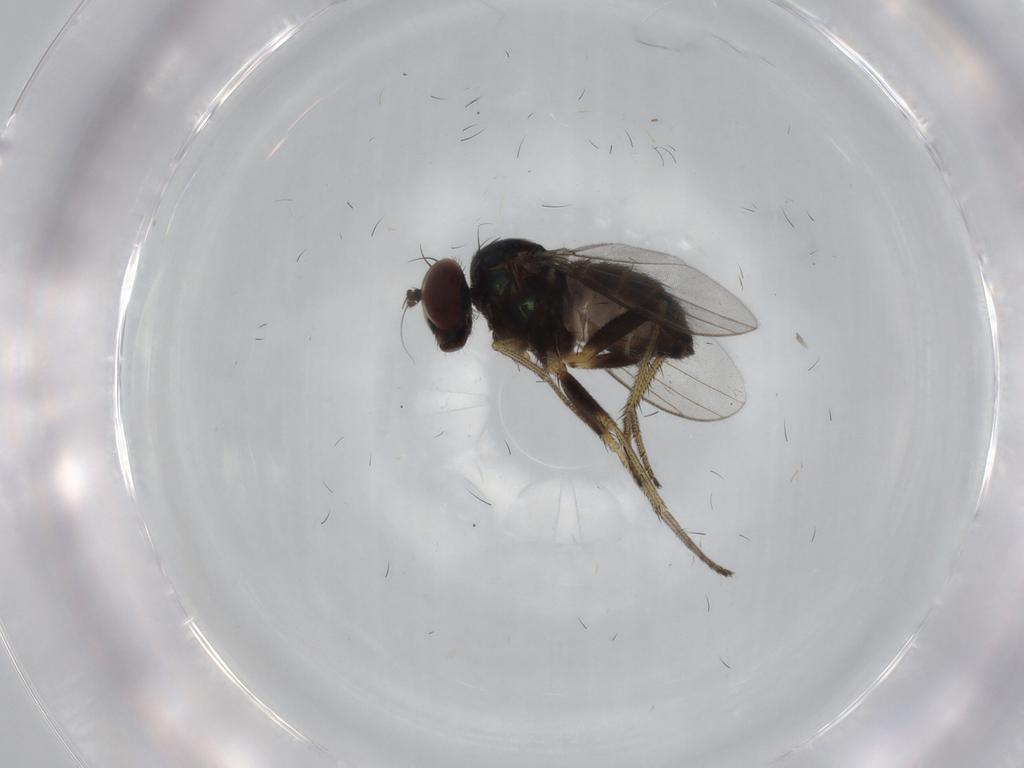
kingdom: Animalia
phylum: Arthropoda
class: Insecta
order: Diptera
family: Dolichopodidae
